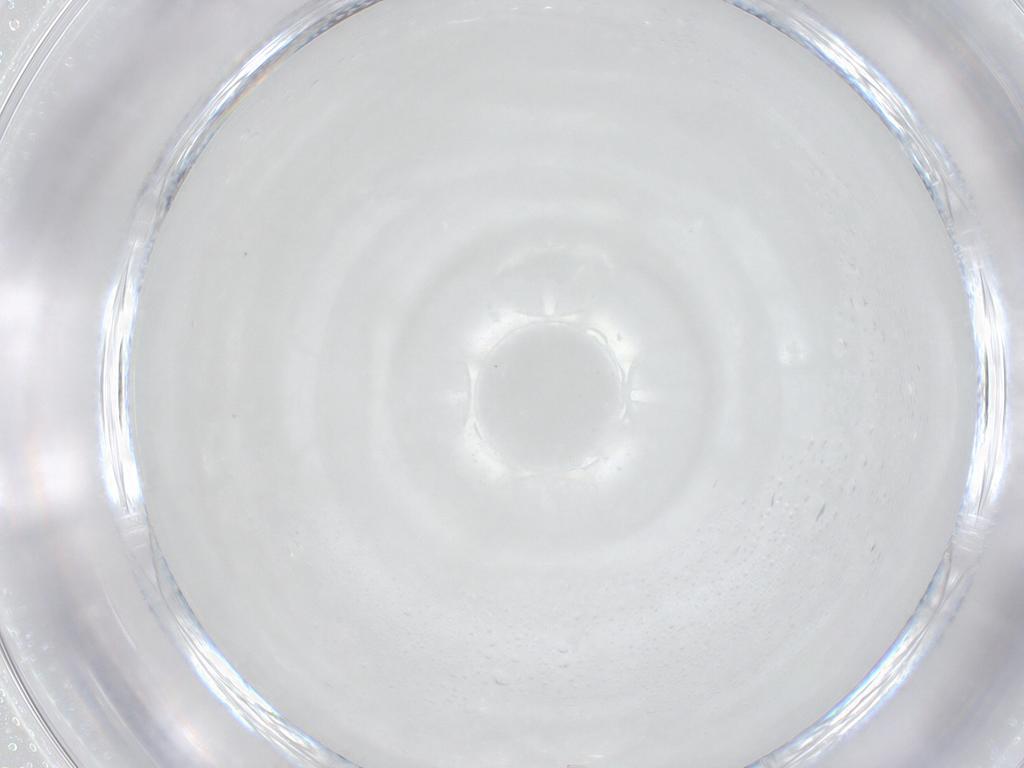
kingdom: Animalia
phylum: Arthropoda
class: Insecta
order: Diptera
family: Cecidomyiidae
